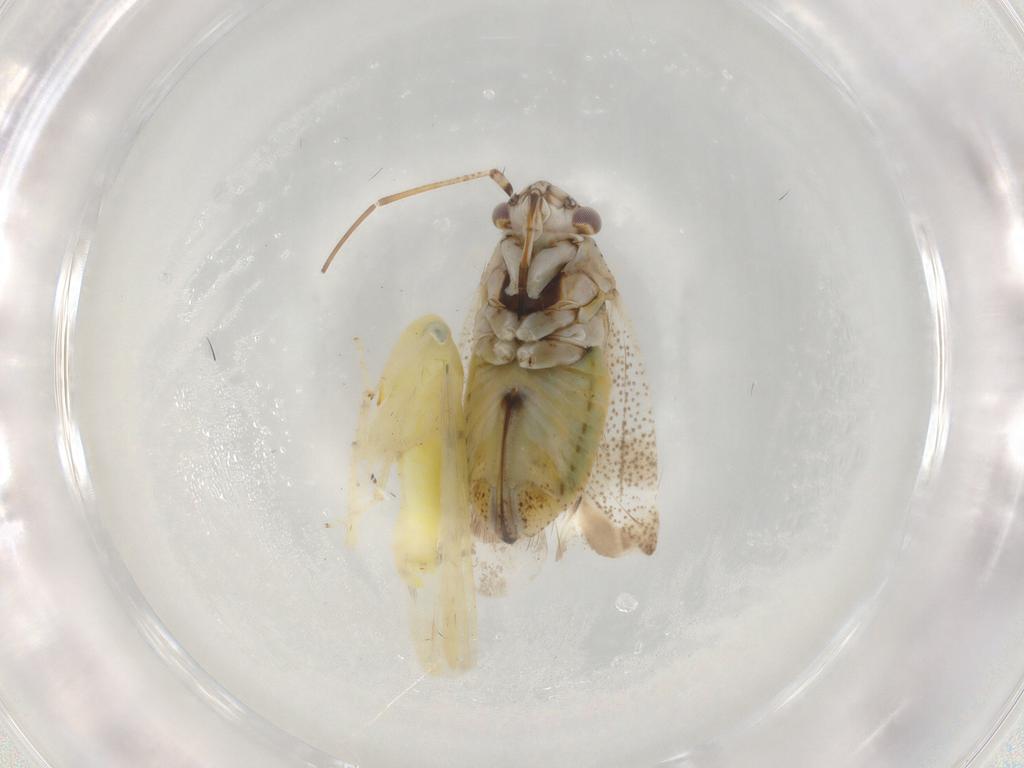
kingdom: Animalia
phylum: Arthropoda
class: Insecta
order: Hemiptera
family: Miridae
